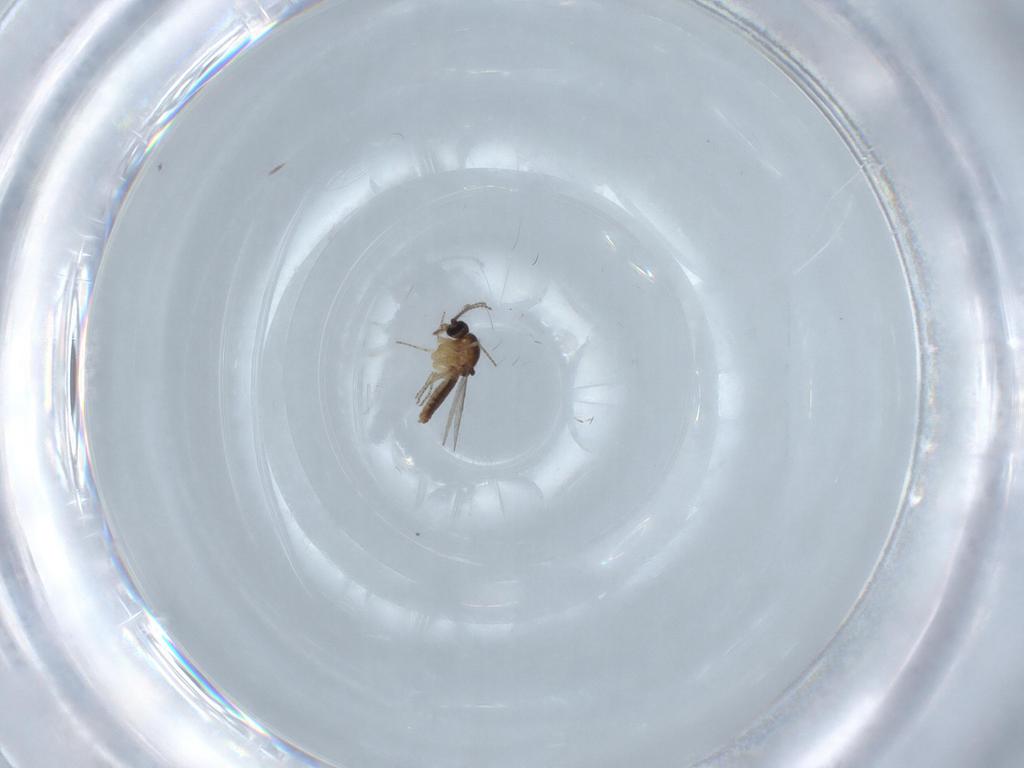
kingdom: Animalia
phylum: Arthropoda
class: Insecta
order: Diptera
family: Ceratopogonidae
